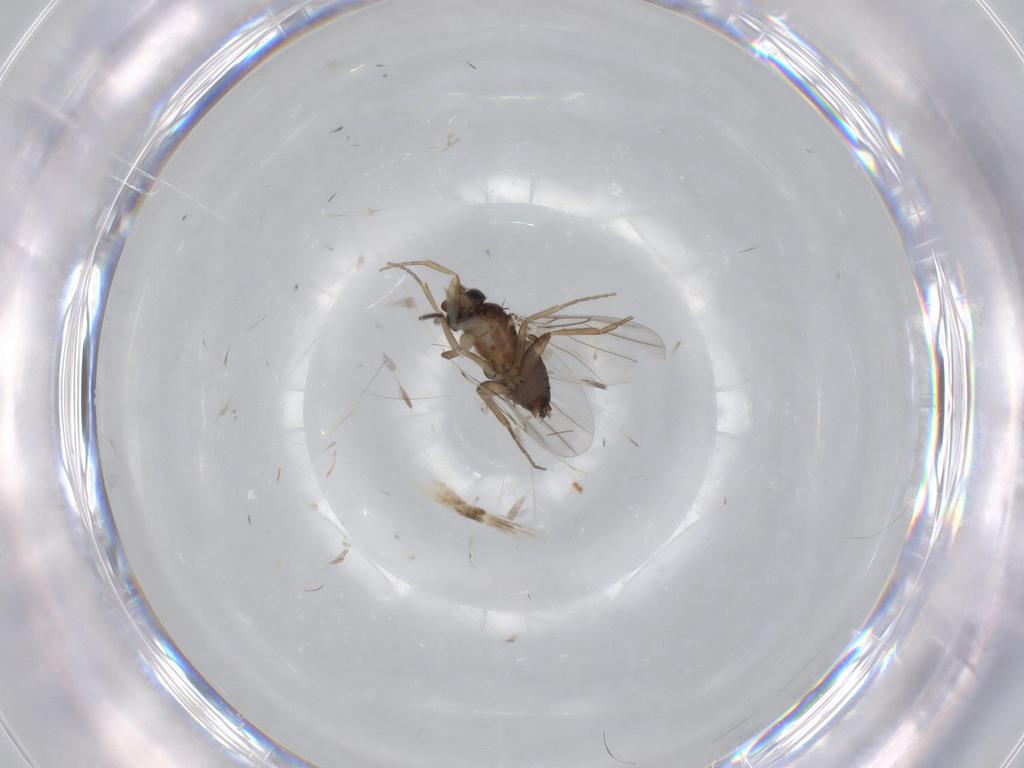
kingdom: Animalia
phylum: Arthropoda
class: Insecta
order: Diptera
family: Phoridae
